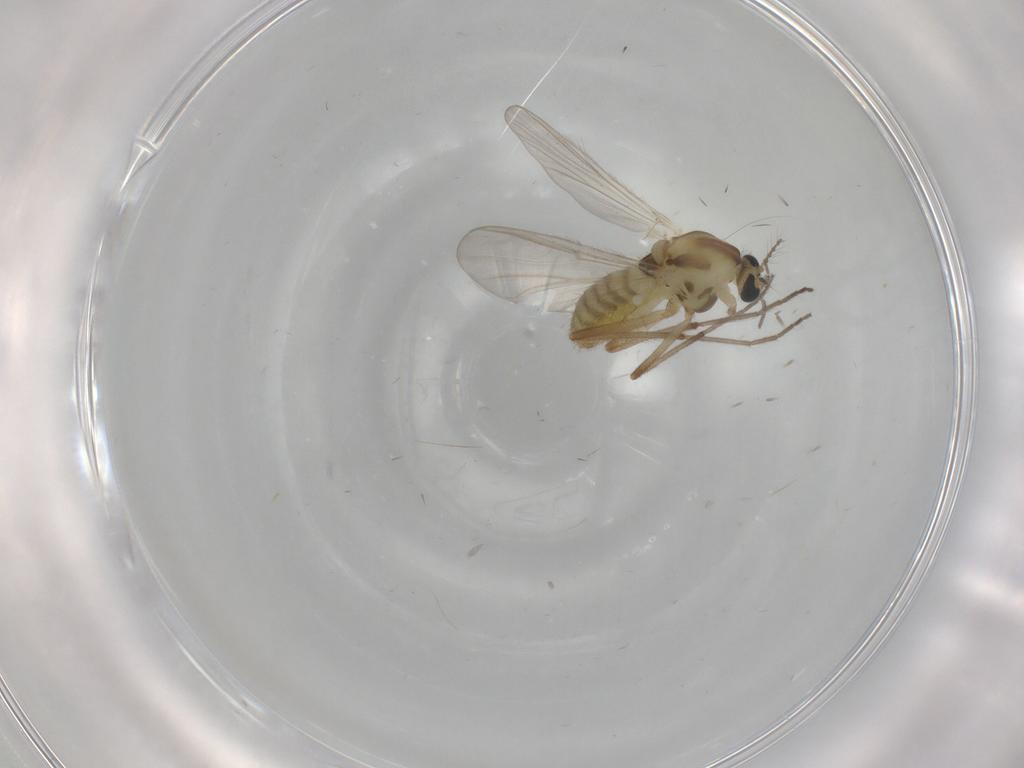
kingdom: Animalia
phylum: Arthropoda
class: Insecta
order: Diptera
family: Chironomidae
